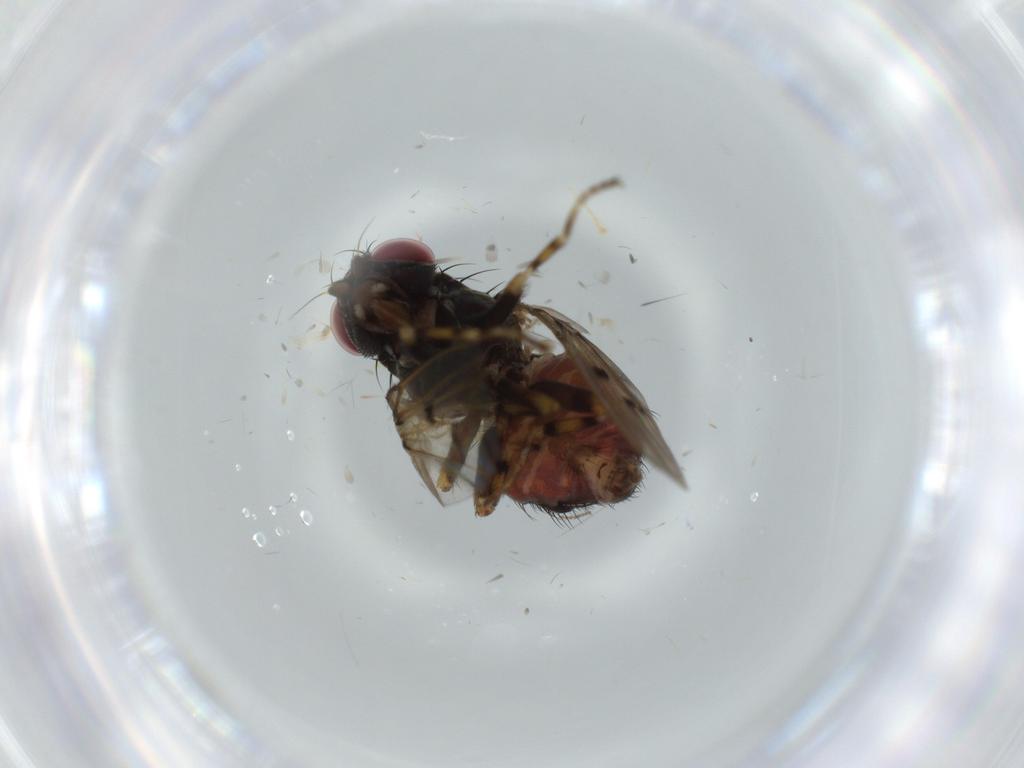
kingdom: Animalia
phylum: Arthropoda
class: Insecta
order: Diptera
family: Odiniidae
